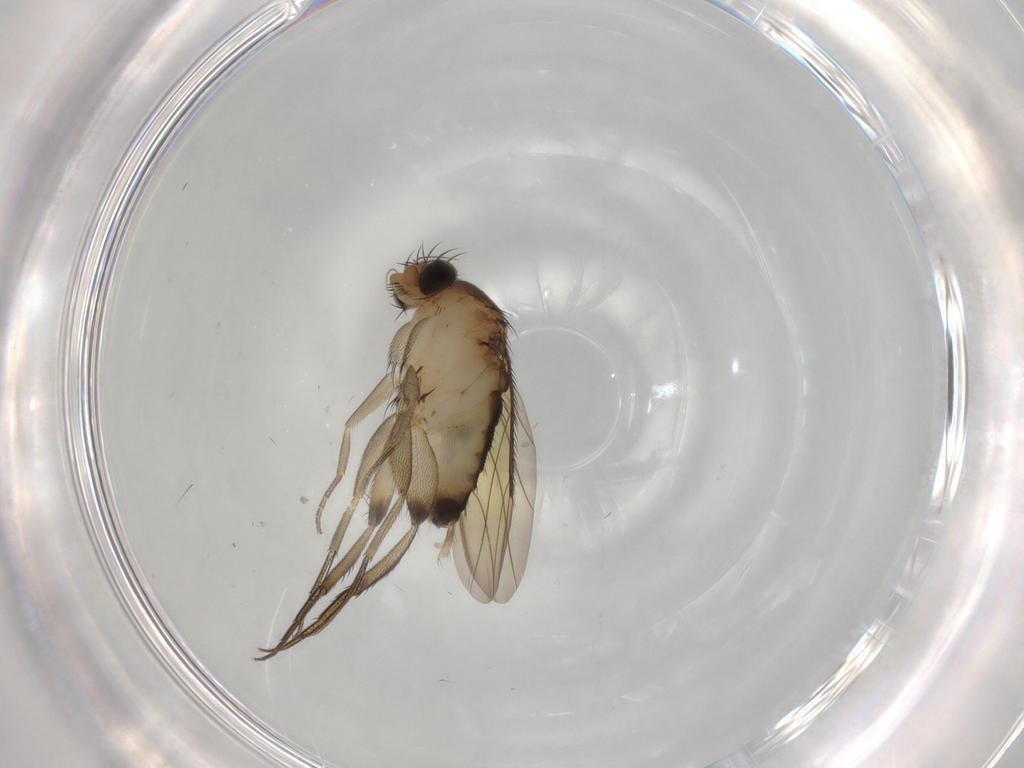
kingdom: Animalia
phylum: Arthropoda
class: Insecta
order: Diptera
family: Phoridae
